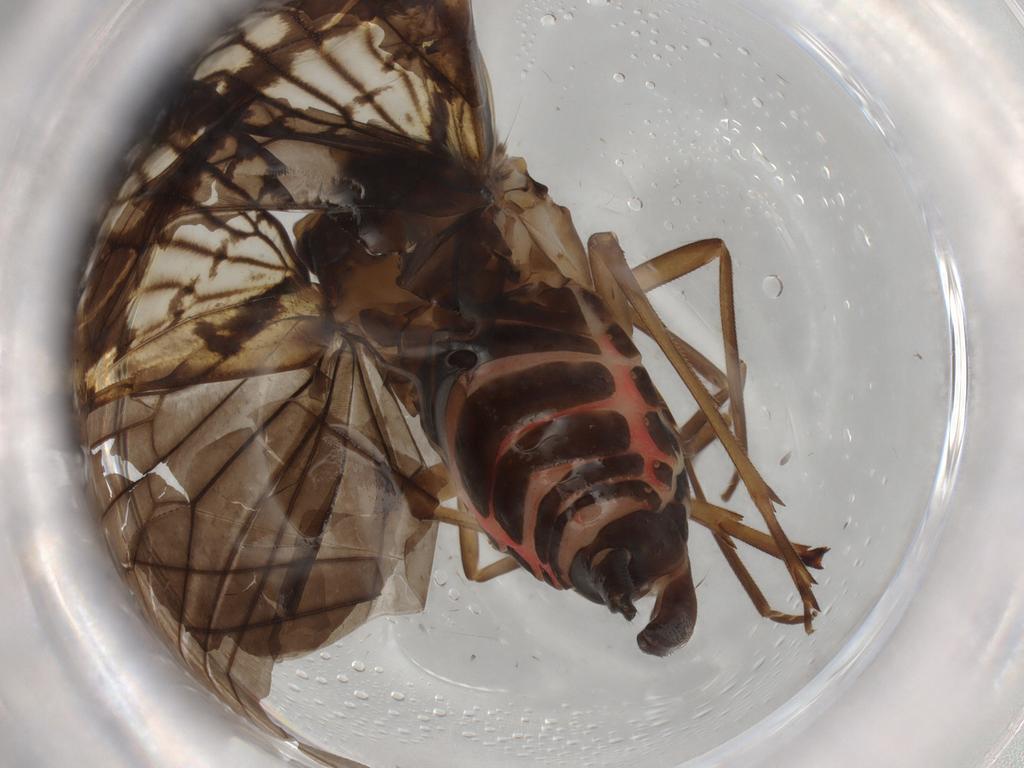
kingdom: Animalia
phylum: Arthropoda
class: Insecta
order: Hemiptera
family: Cixiidae
